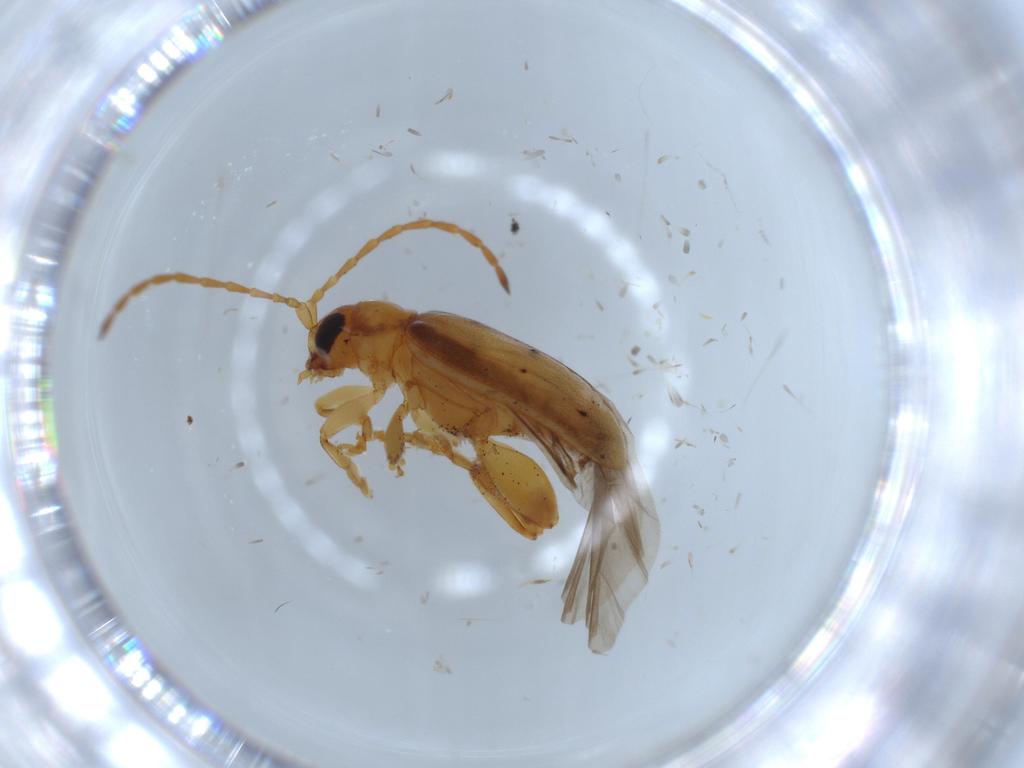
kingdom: Animalia
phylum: Arthropoda
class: Insecta
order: Coleoptera
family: Chrysomelidae
